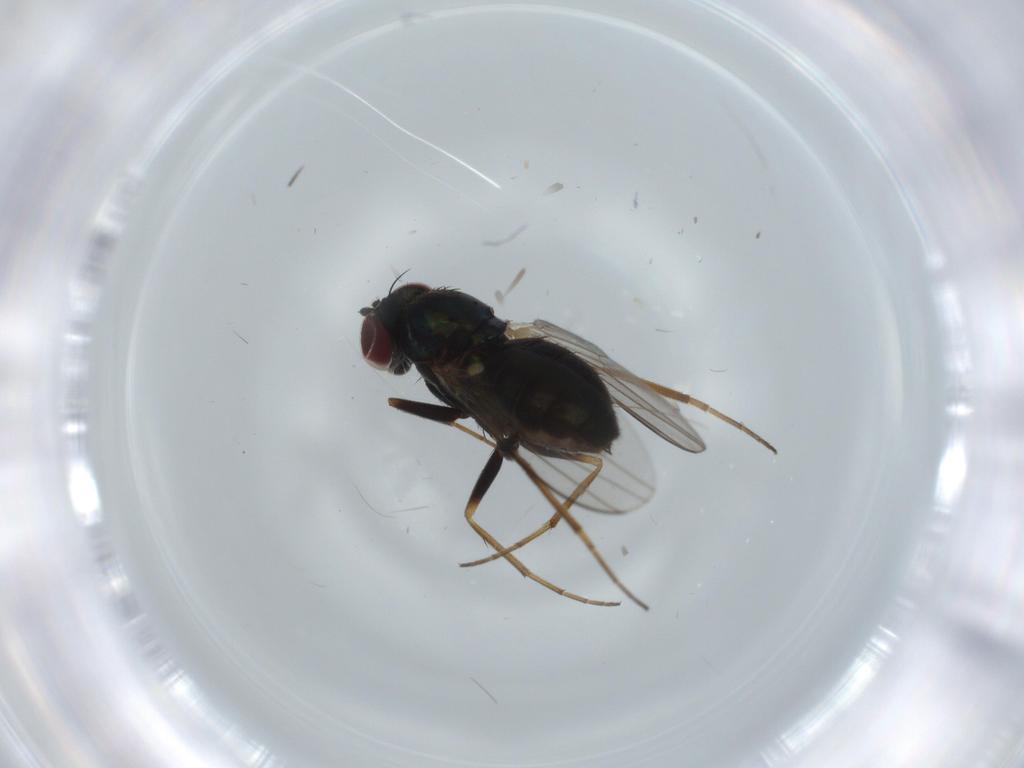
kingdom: Animalia
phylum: Arthropoda
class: Insecta
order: Diptera
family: Dolichopodidae
